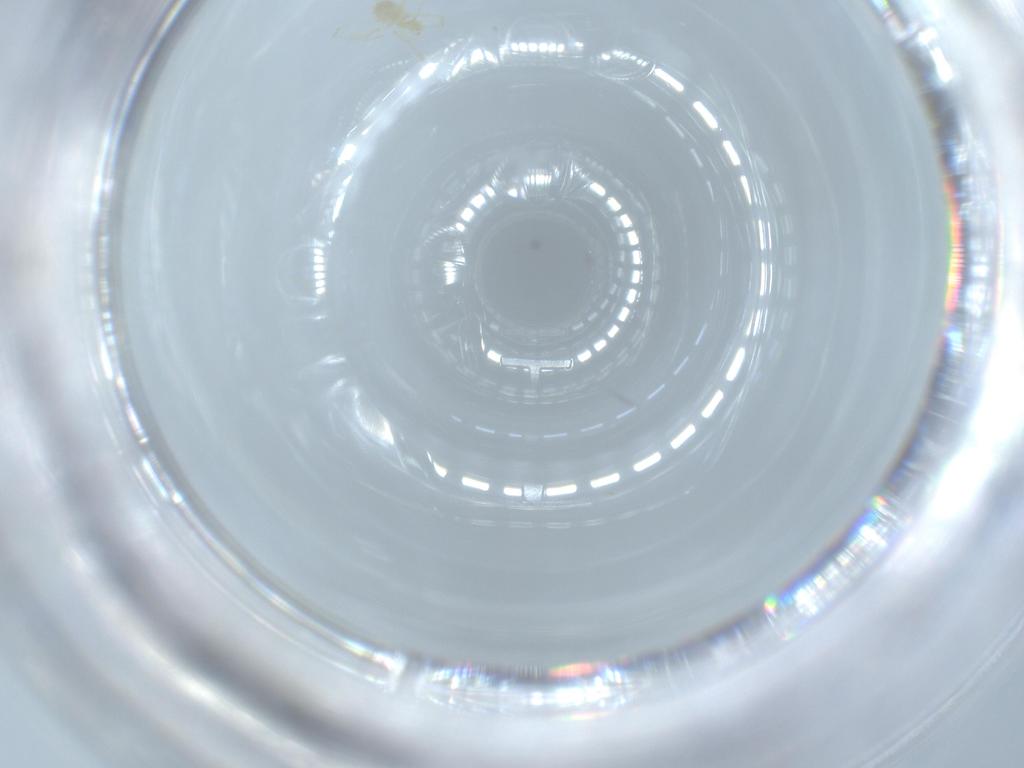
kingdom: Animalia
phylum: Arthropoda
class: Arachnida
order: Trombidiformes
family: Erythraeidae
